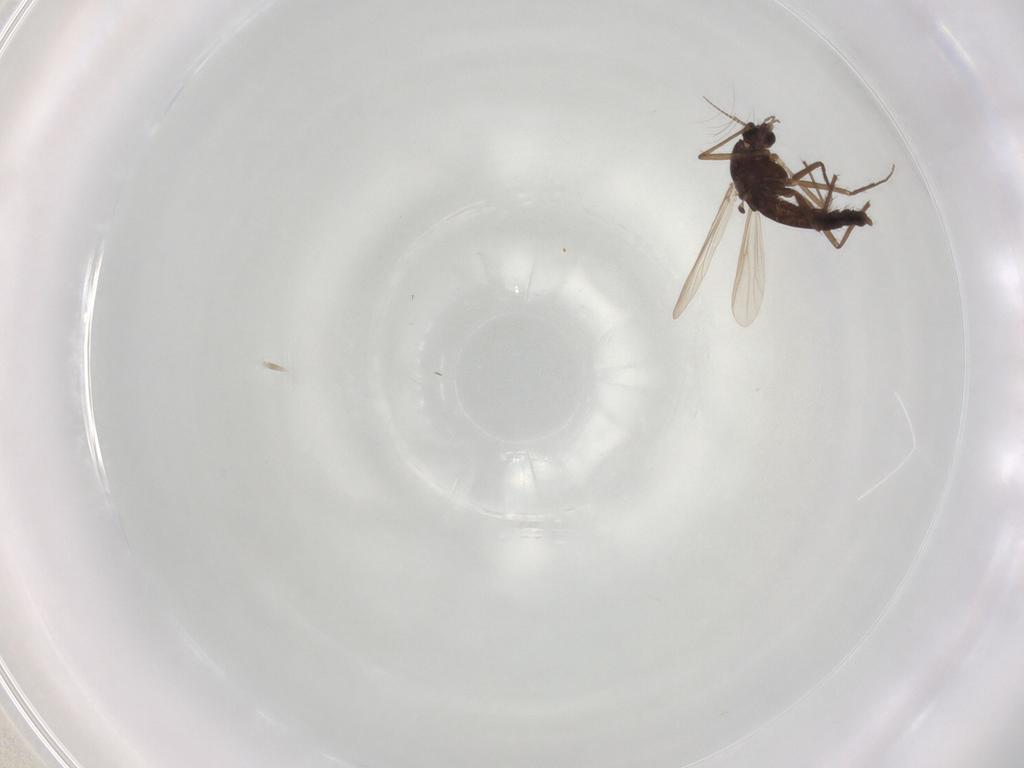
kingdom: Animalia
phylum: Arthropoda
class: Insecta
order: Diptera
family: Chironomidae
